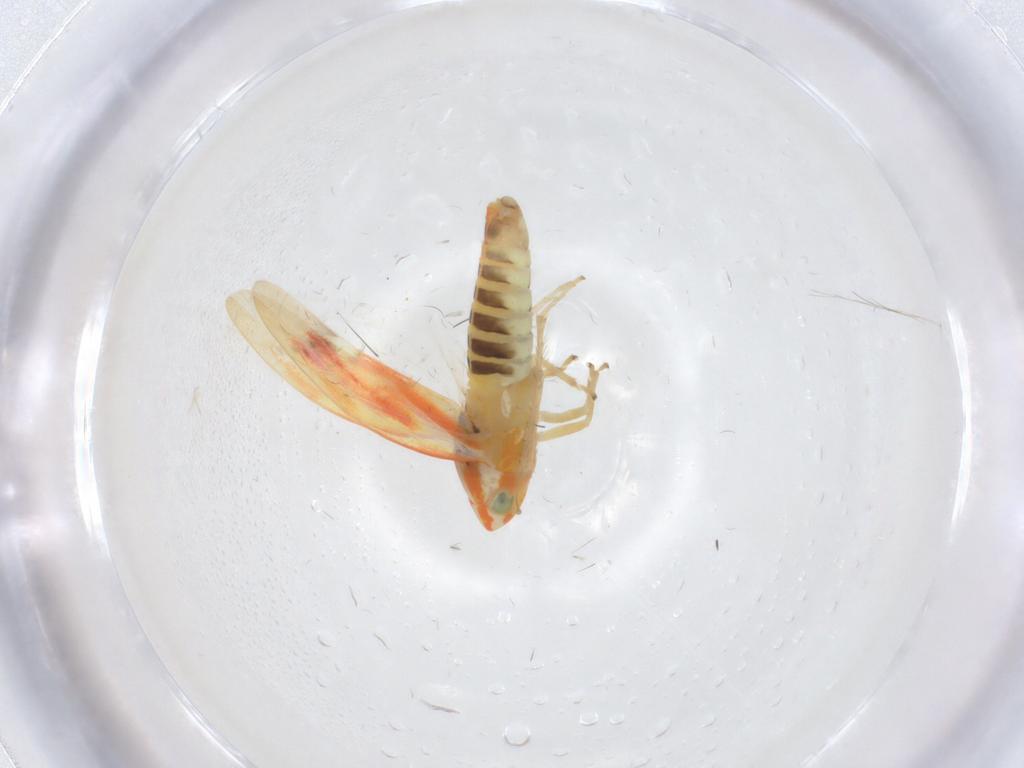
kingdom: Animalia
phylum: Arthropoda
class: Insecta
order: Hemiptera
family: Cicadellidae
